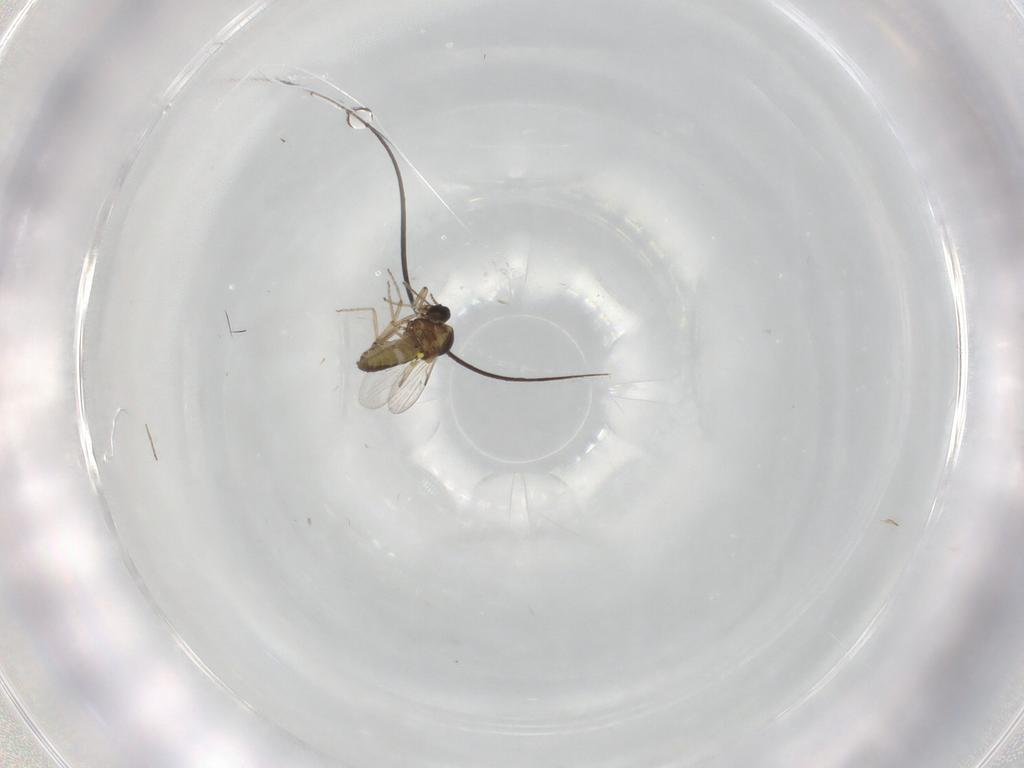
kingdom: Animalia
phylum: Arthropoda
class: Insecta
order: Diptera
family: Ceratopogonidae
